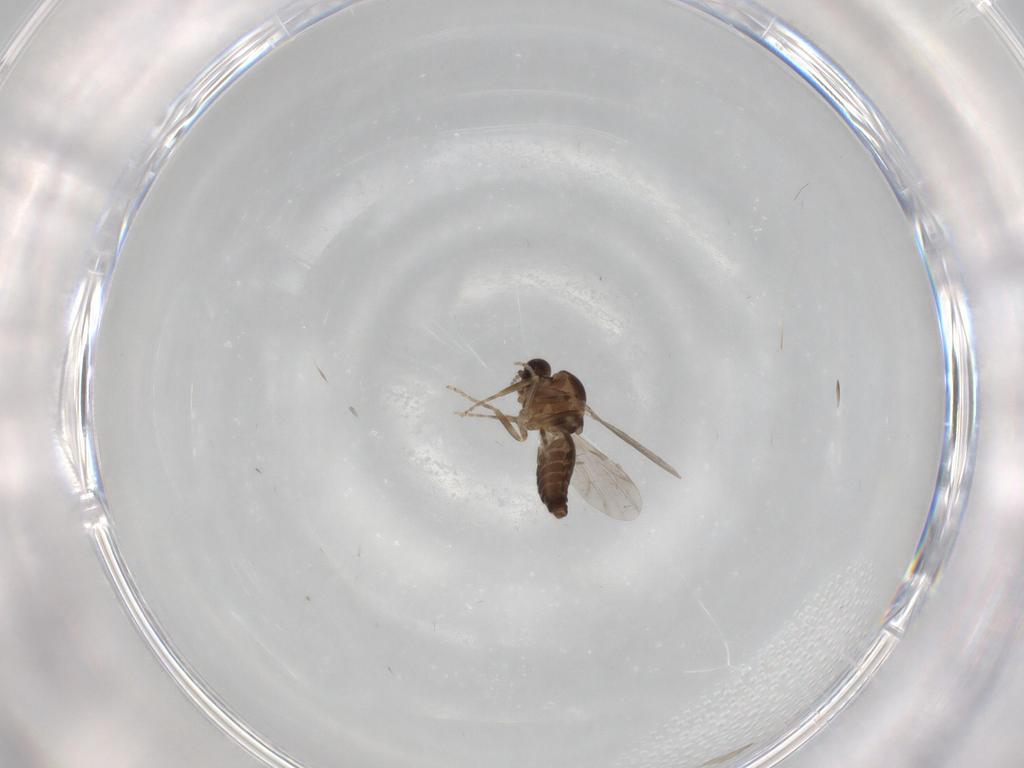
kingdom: Animalia
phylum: Arthropoda
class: Insecta
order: Diptera
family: Ceratopogonidae
